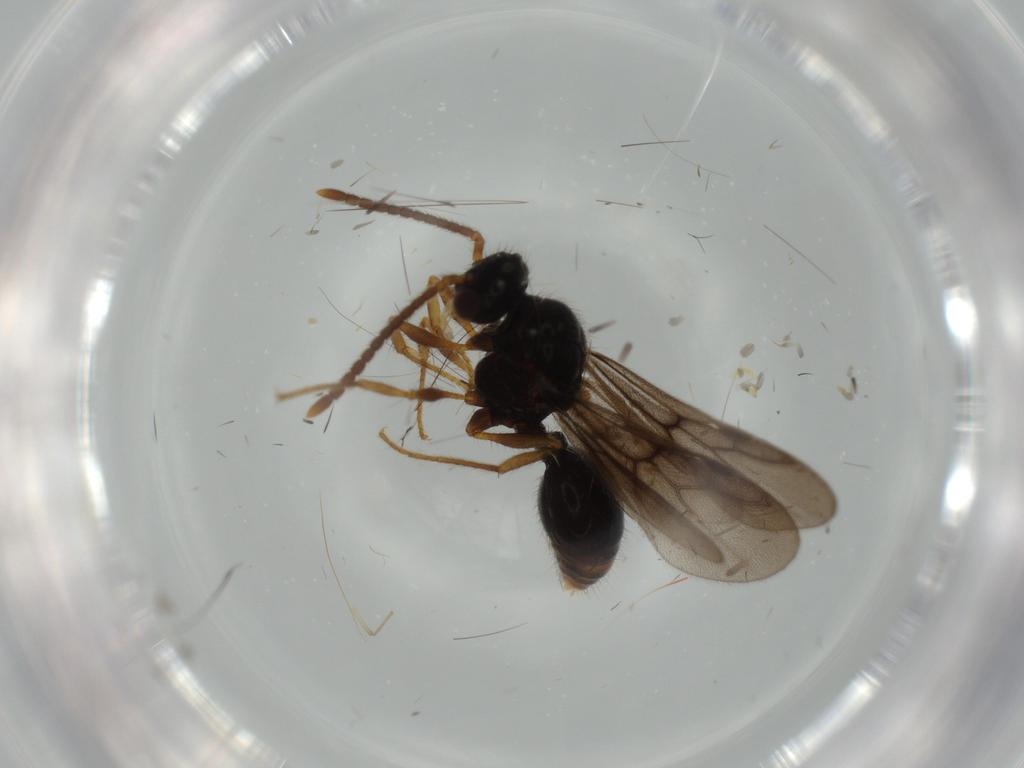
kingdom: Animalia
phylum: Arthropoda
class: Insecta
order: Hymenoptera
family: Formicidae
